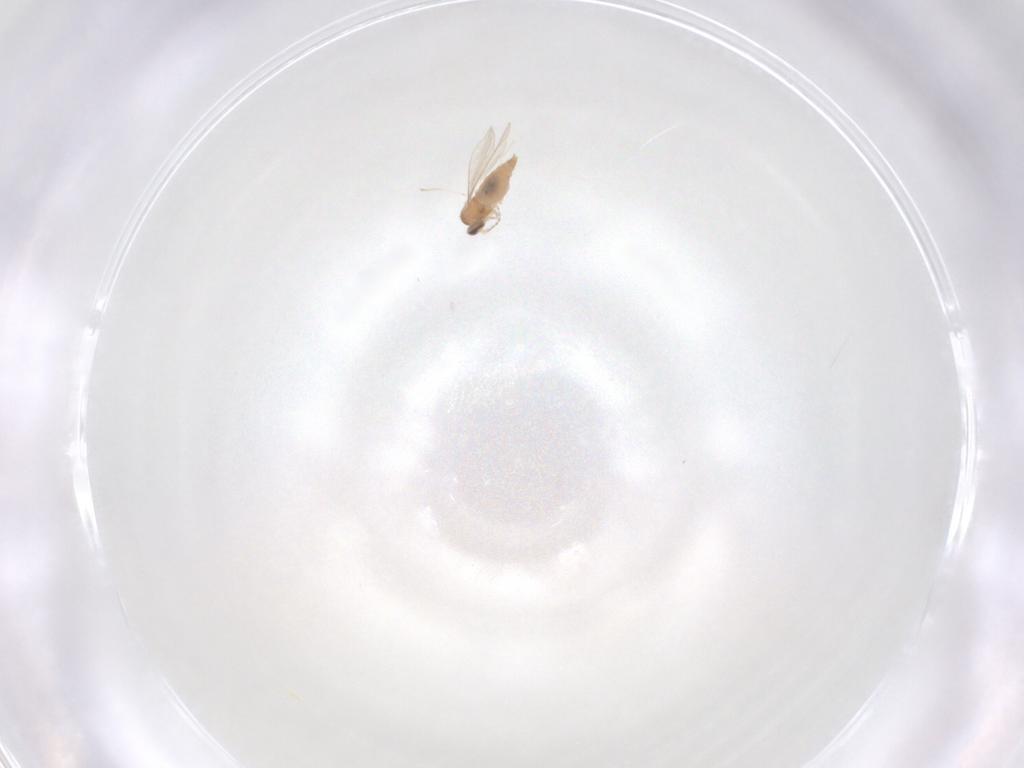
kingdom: Animalia
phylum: Arthropoda
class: Insecta
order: Diptera
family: Cecidomyiidae
